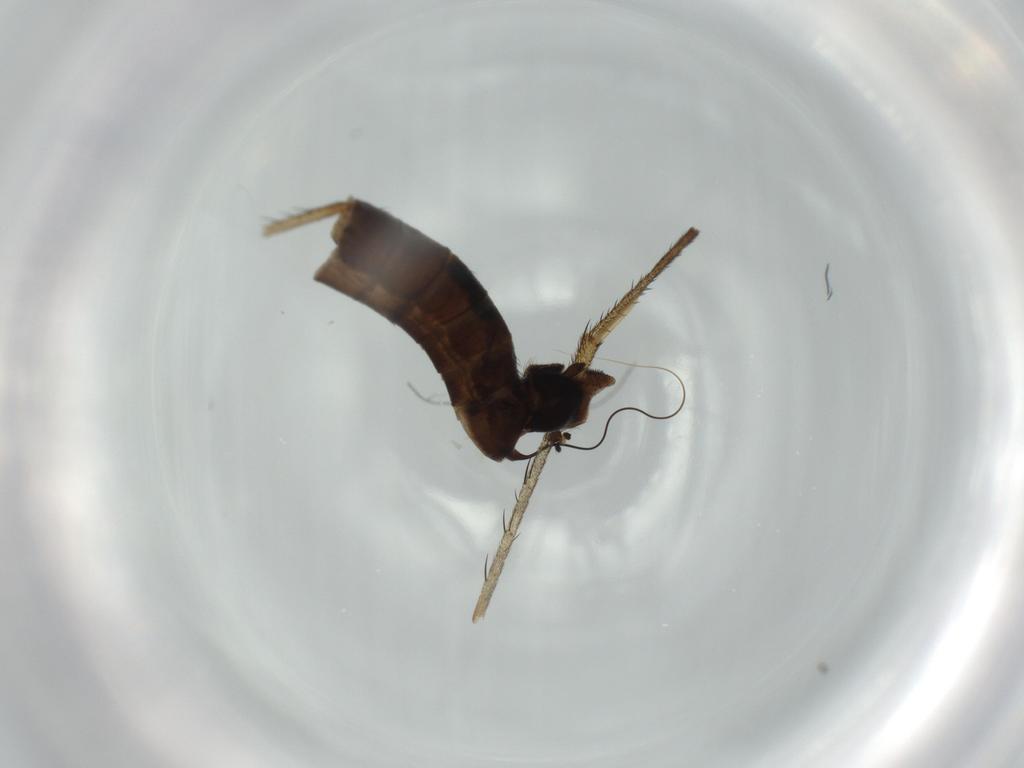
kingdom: Animalia
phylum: Arthropoda
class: Insecta
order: Diptera
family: Empididae
